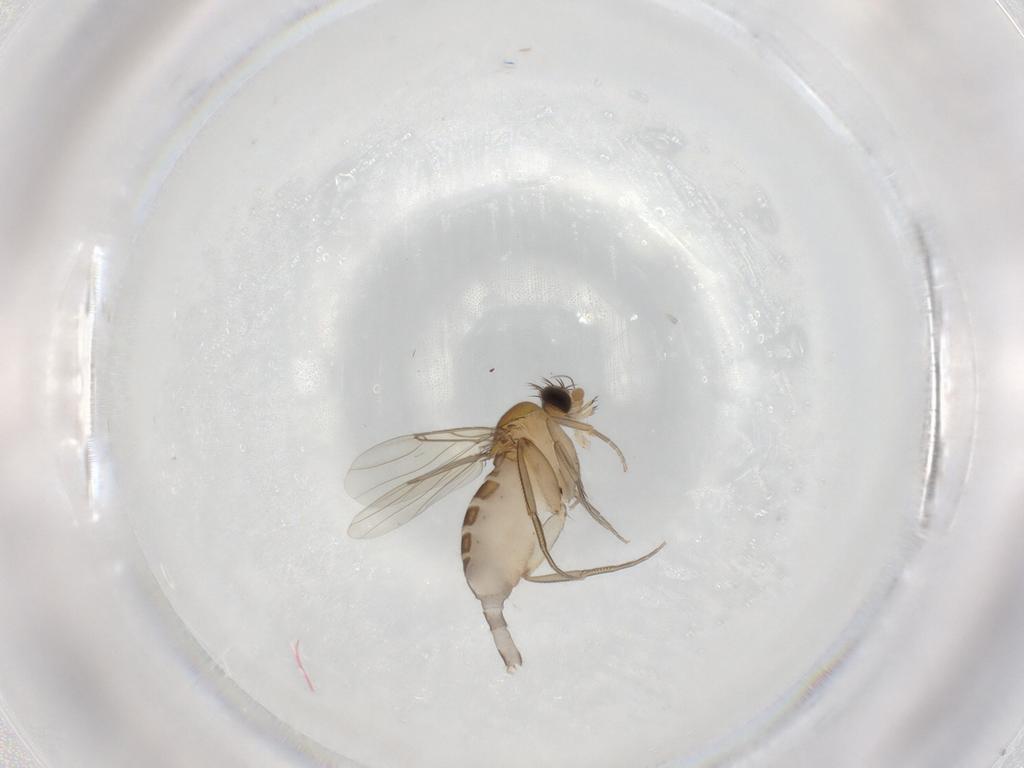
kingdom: Animalia
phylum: Arthropoda
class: Insecta
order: Diptera
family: Phoridae
